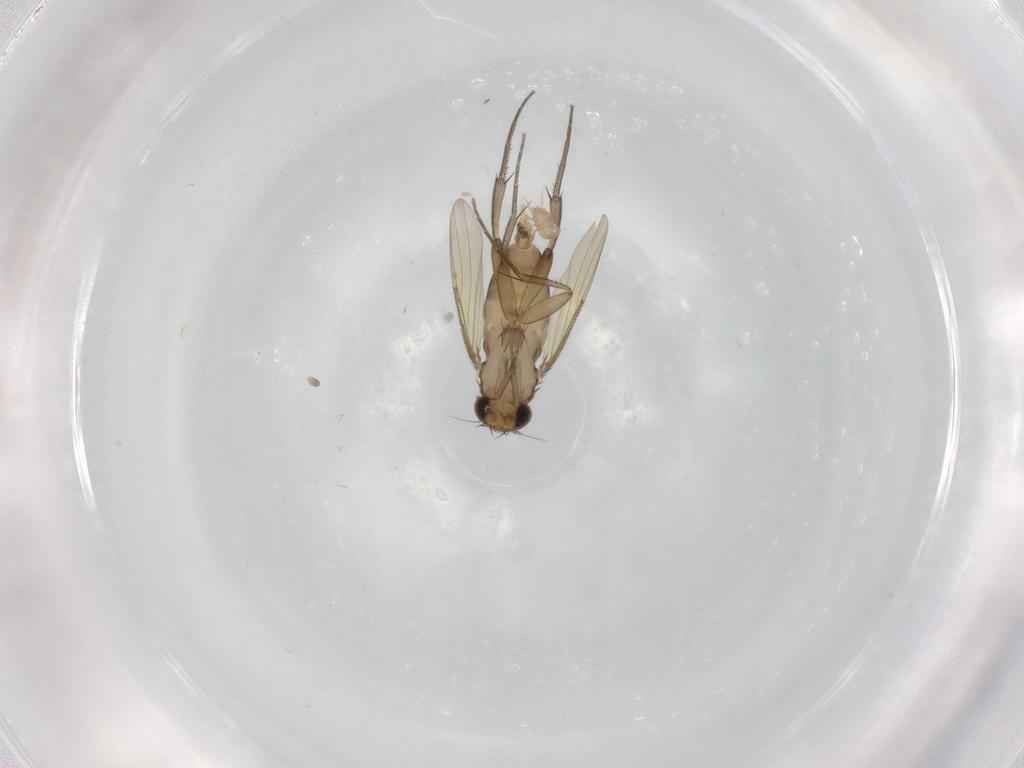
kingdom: Animalia
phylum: Arthropoda
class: Insecta
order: Diptera
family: Phoridae
